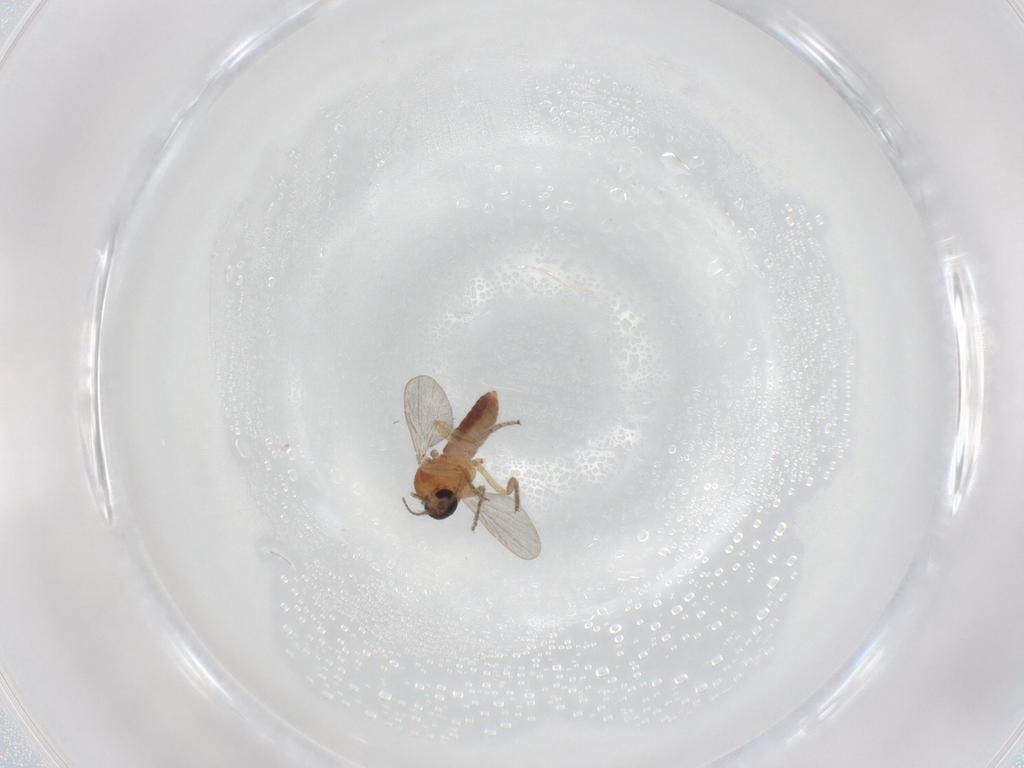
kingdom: Animalia
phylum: Arthropoda
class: Insecta
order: Diptera
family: Ceratopogonidae
